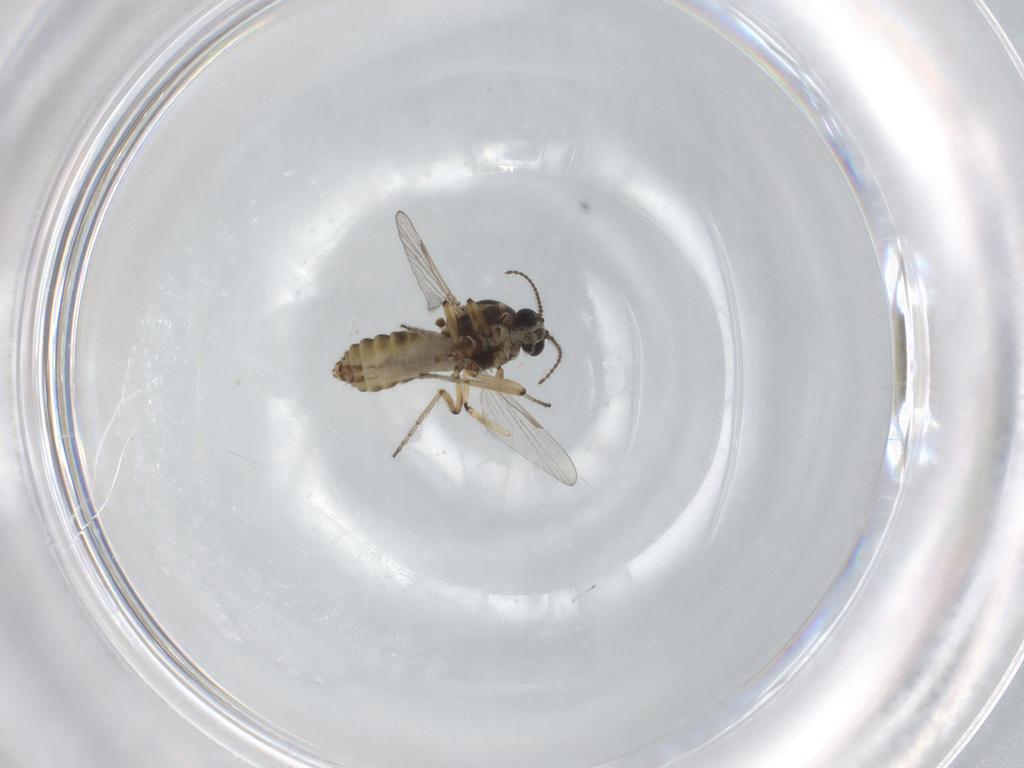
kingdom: Animalia
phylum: Arthropoda
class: Insecta
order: Diptera
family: Ceratopogonidae
